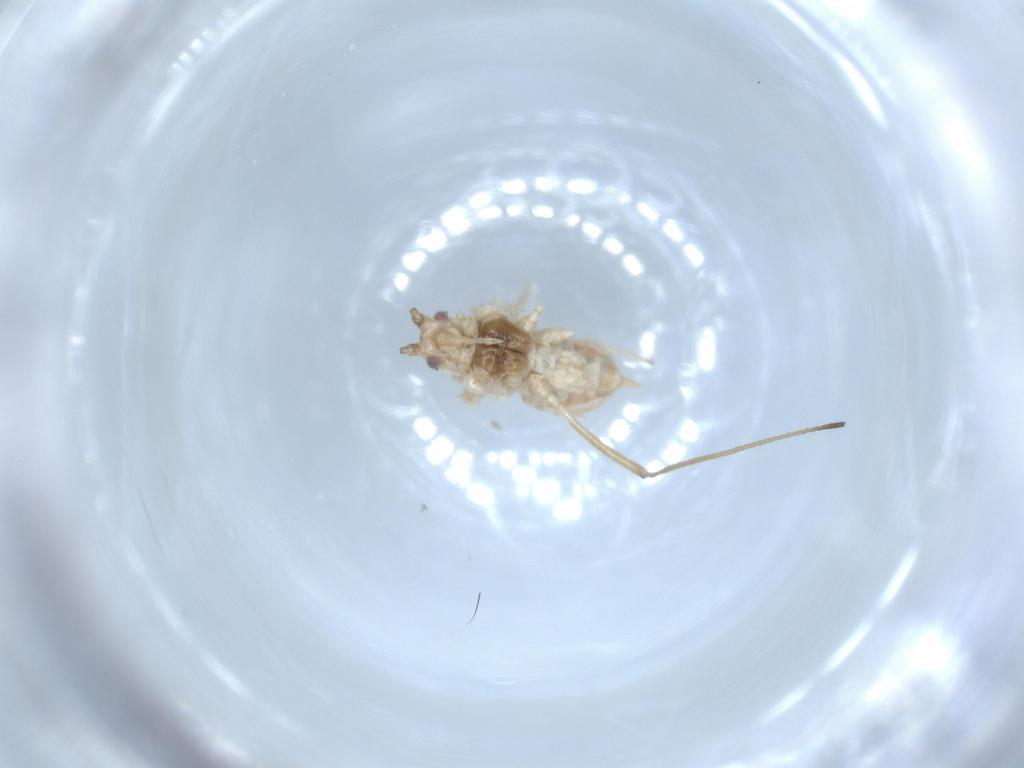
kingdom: Animalia
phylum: Arthropoda
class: Insecta
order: Hemiptera
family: Aphididae
